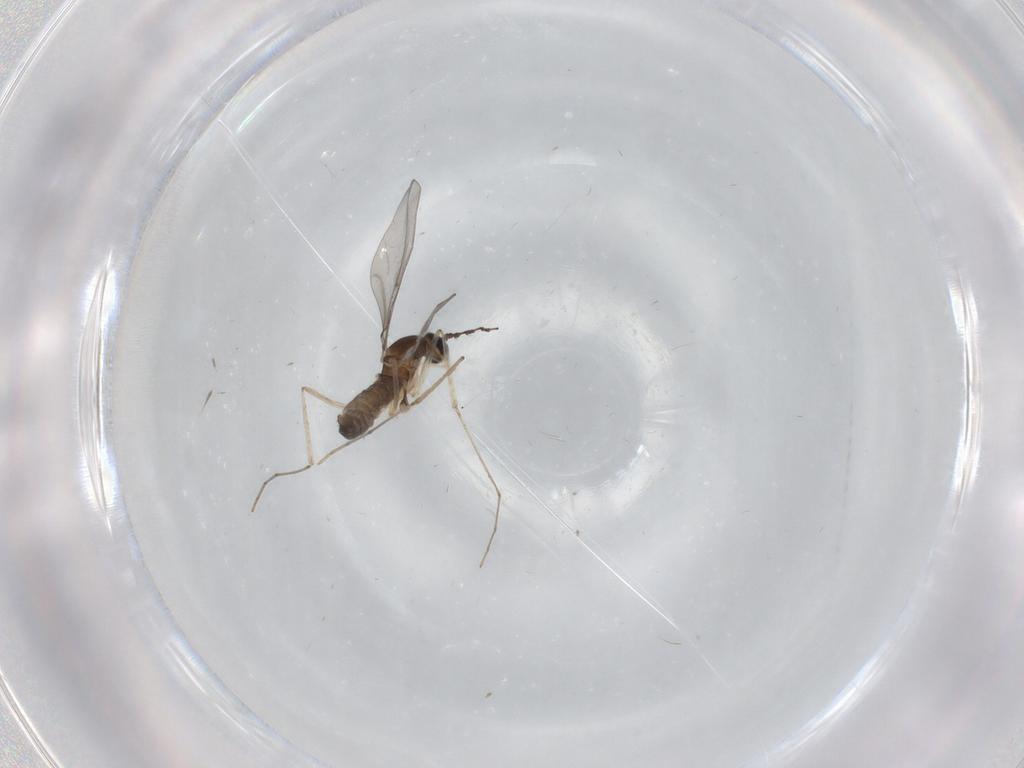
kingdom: Animalia
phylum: Arthropoda
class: Insecta
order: Diptera
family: Cecidomyiidae
